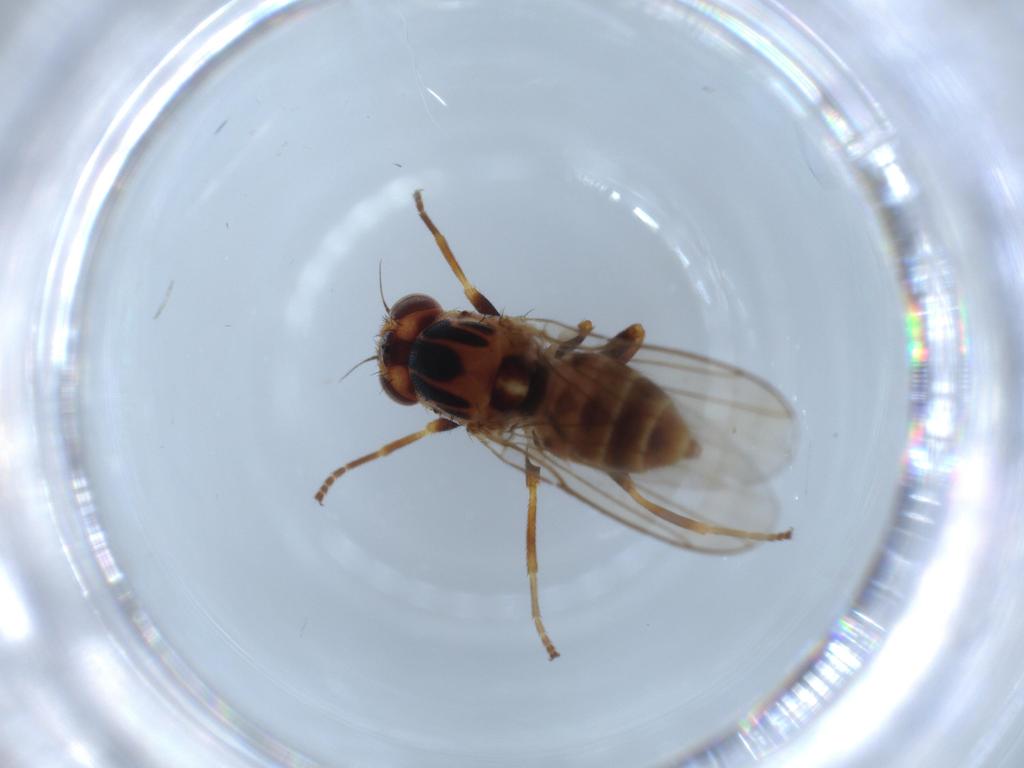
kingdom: Animalia
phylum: Arthropoda
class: Insecta
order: Diptera
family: Chloropidae
